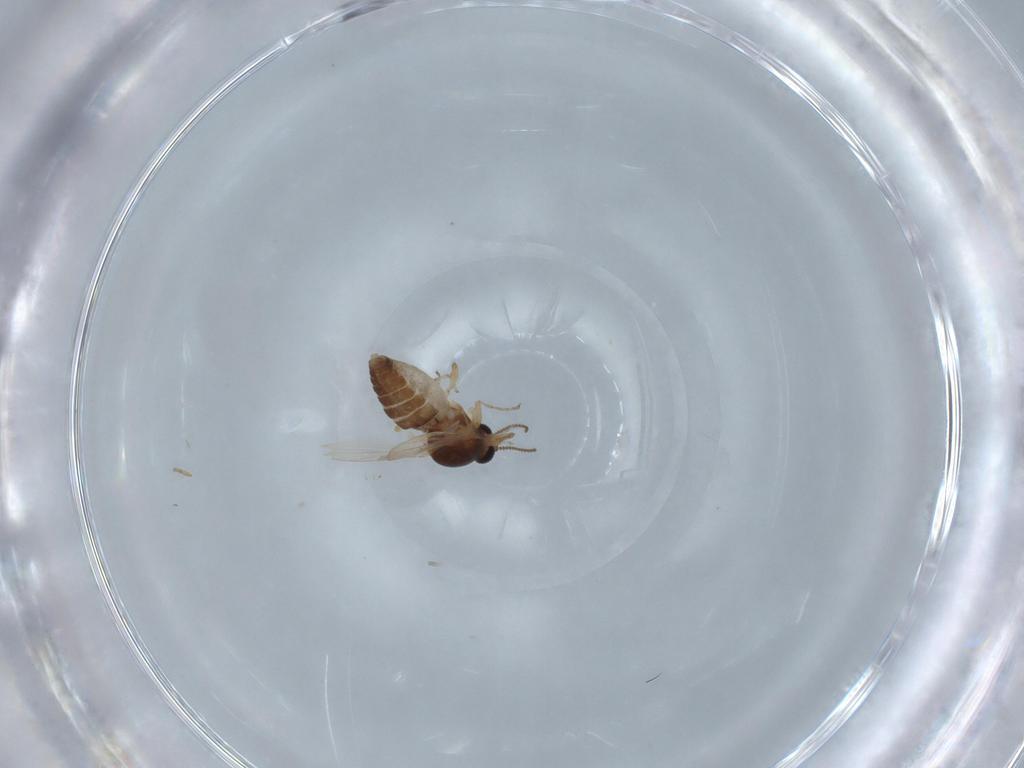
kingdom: Animalia
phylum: Arthropoda
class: Insecta
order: Diptera
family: Ceratopogonidae
